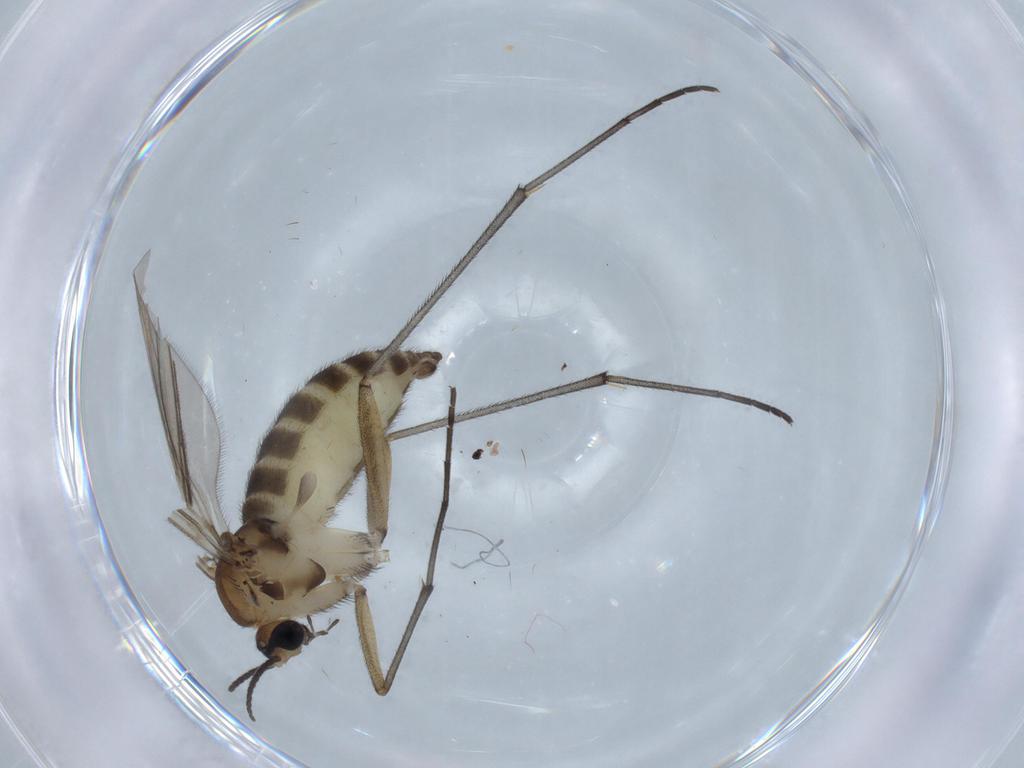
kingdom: Animalia
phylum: Arthropoda
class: Insecta
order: Diptera
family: Sciaridae
